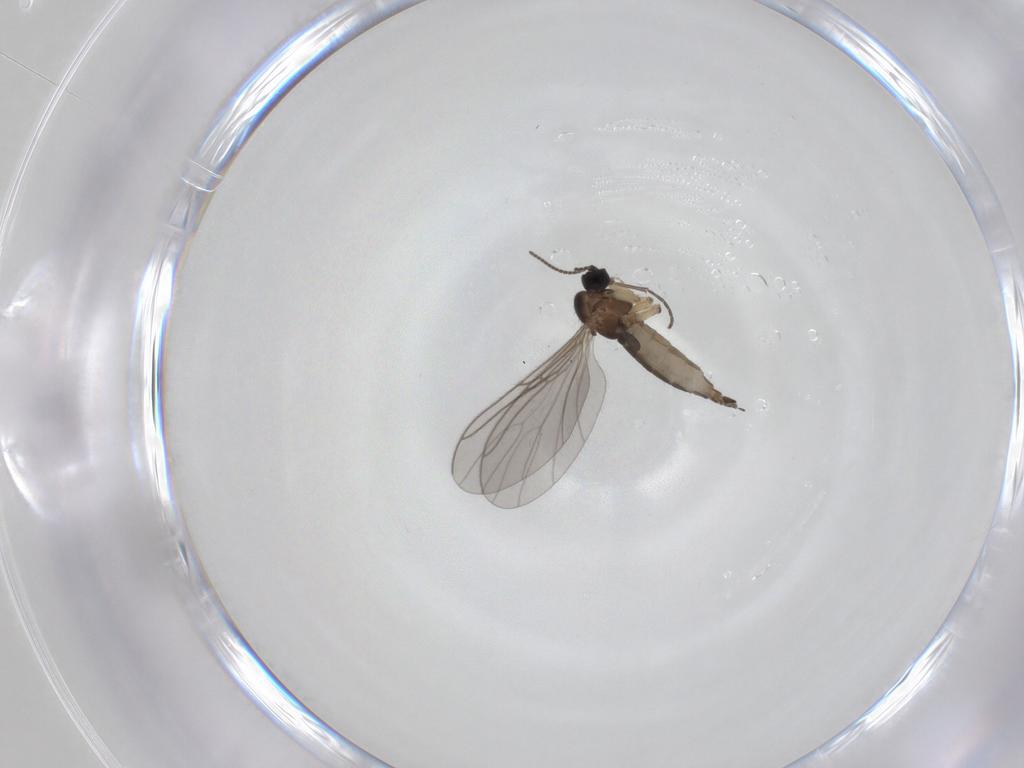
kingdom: Animalia
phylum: Arthropoda
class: Insecta
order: Diptera
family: Sciaridae
